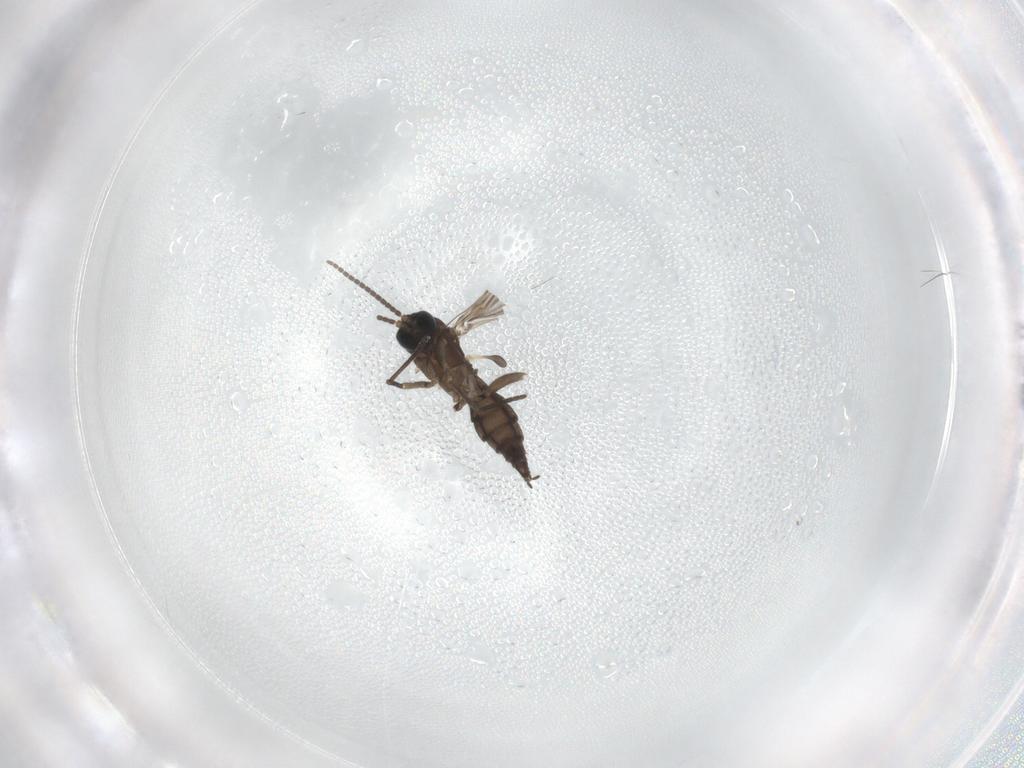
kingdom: Animalia
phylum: Arthropoda
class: Insecta
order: Diptera
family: Sciaridae
